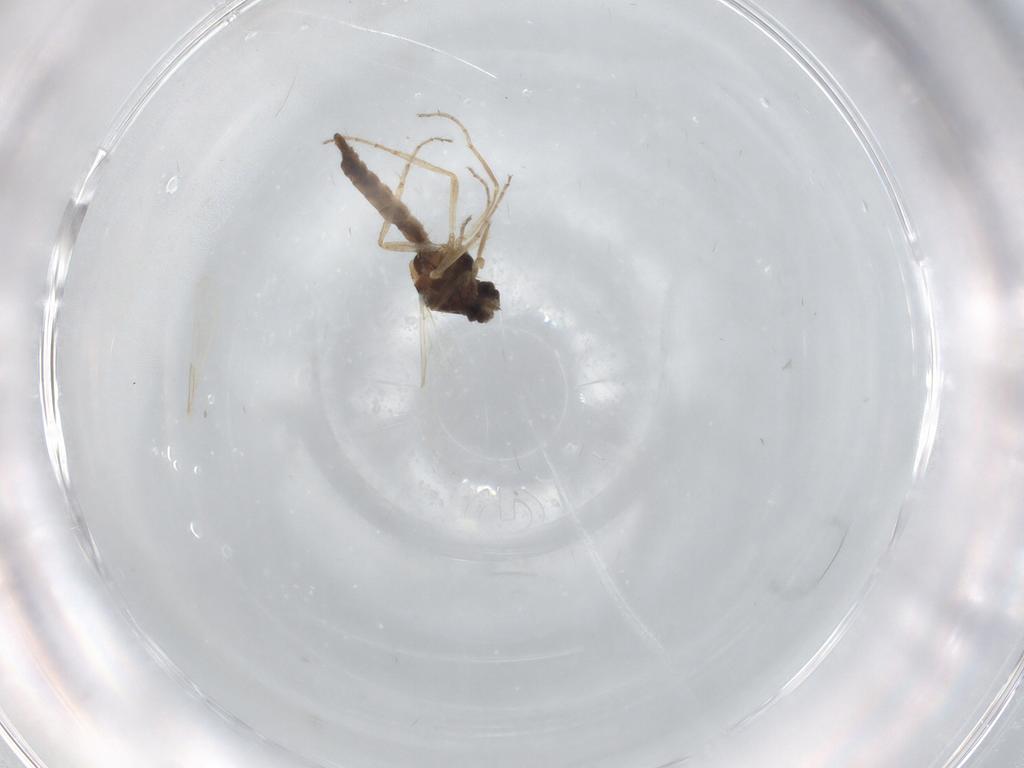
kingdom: Animalia
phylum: Arthropoda
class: Insecta
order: Diptera
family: Ceratopogonidae
